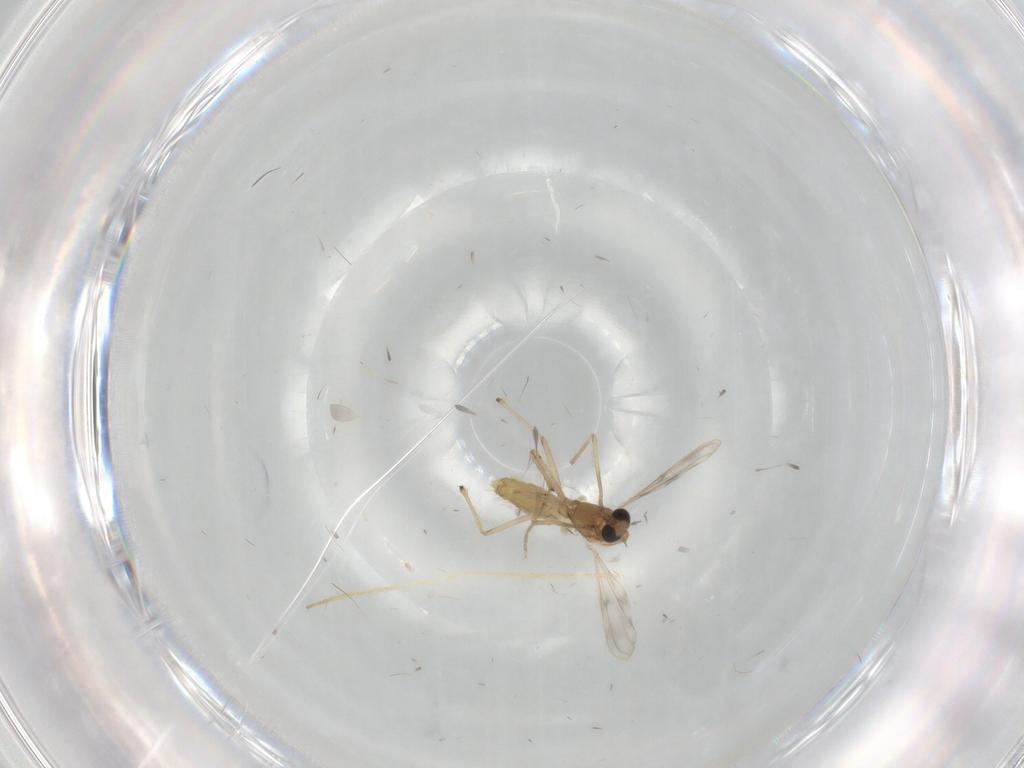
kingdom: Animalia
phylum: Arthropoda
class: Insecta
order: Diptera
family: Chironomidae
